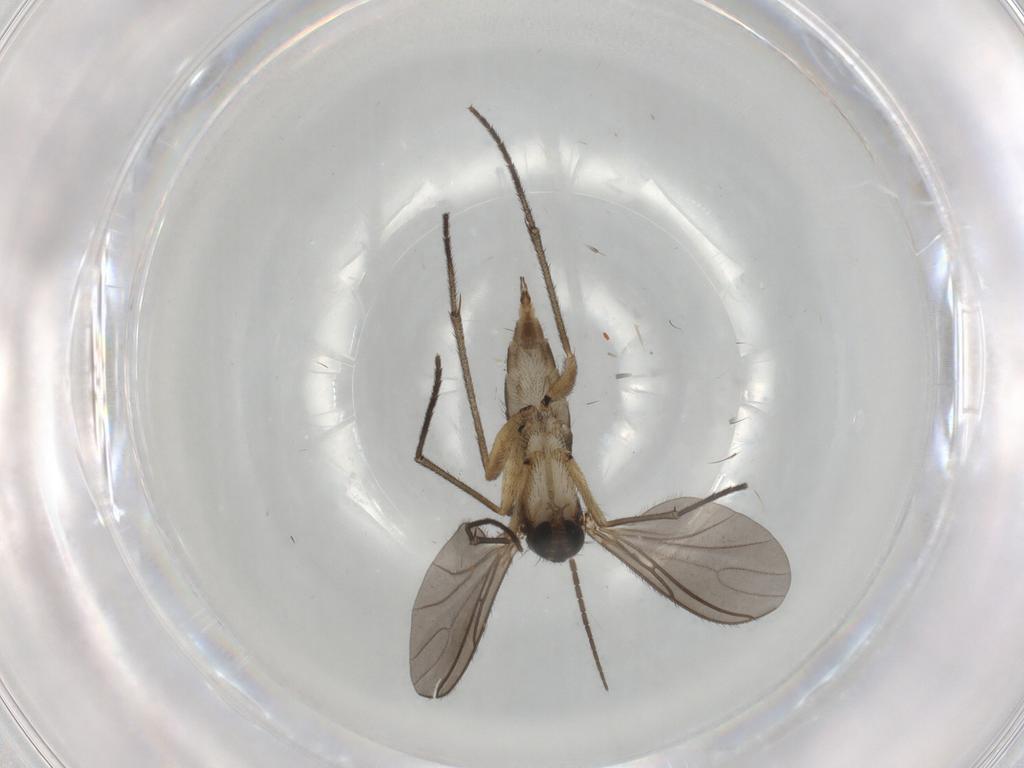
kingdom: Animalia
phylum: Arthropoda
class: Insecta
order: Diptera
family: Sciaridae
